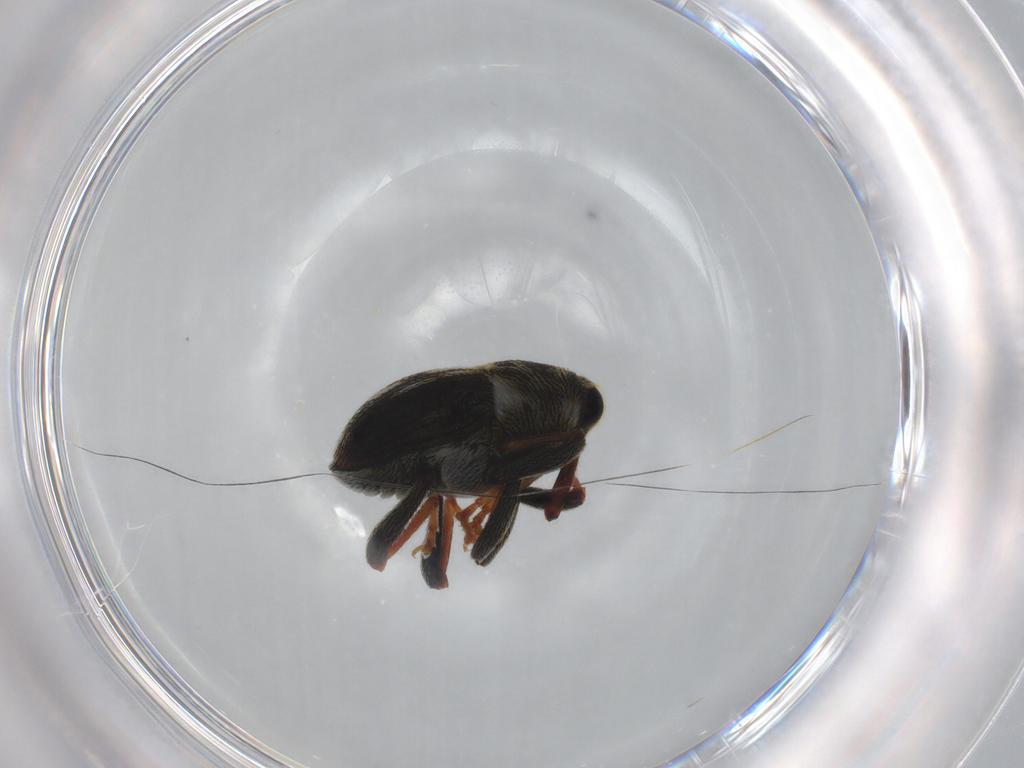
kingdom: Animalia
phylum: Arthropoda
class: Insecta
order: Coleoptera
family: Curculionidae
